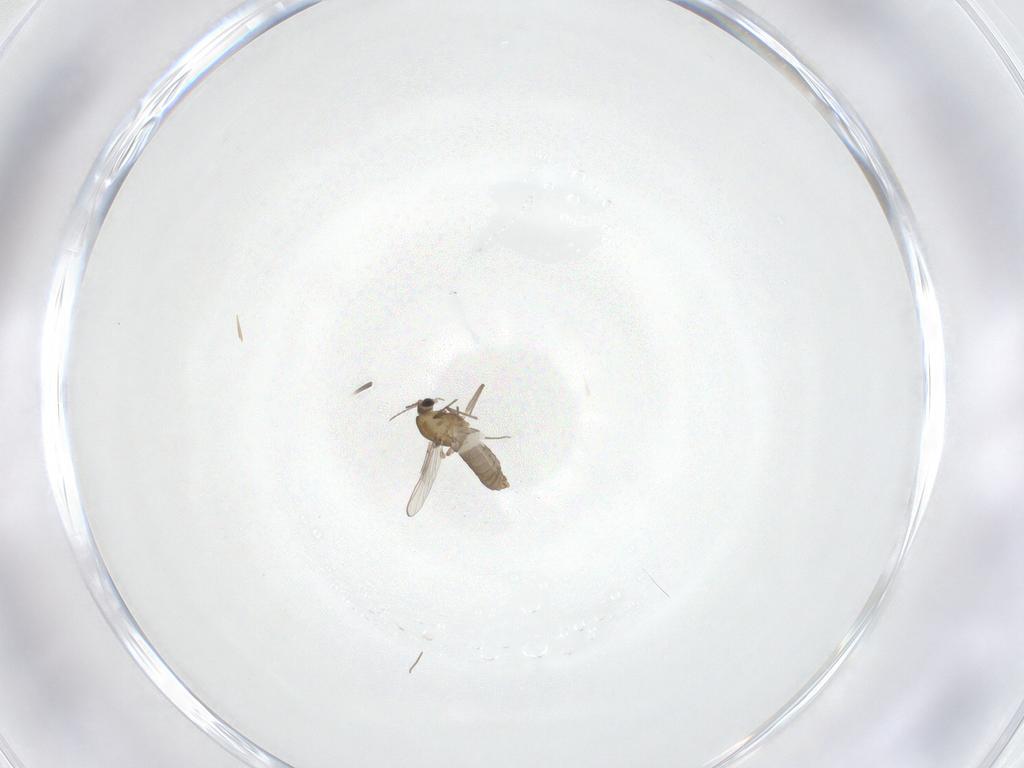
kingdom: Animalia
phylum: Arthropoda
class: Insecta
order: Diptera
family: Chironomidae
